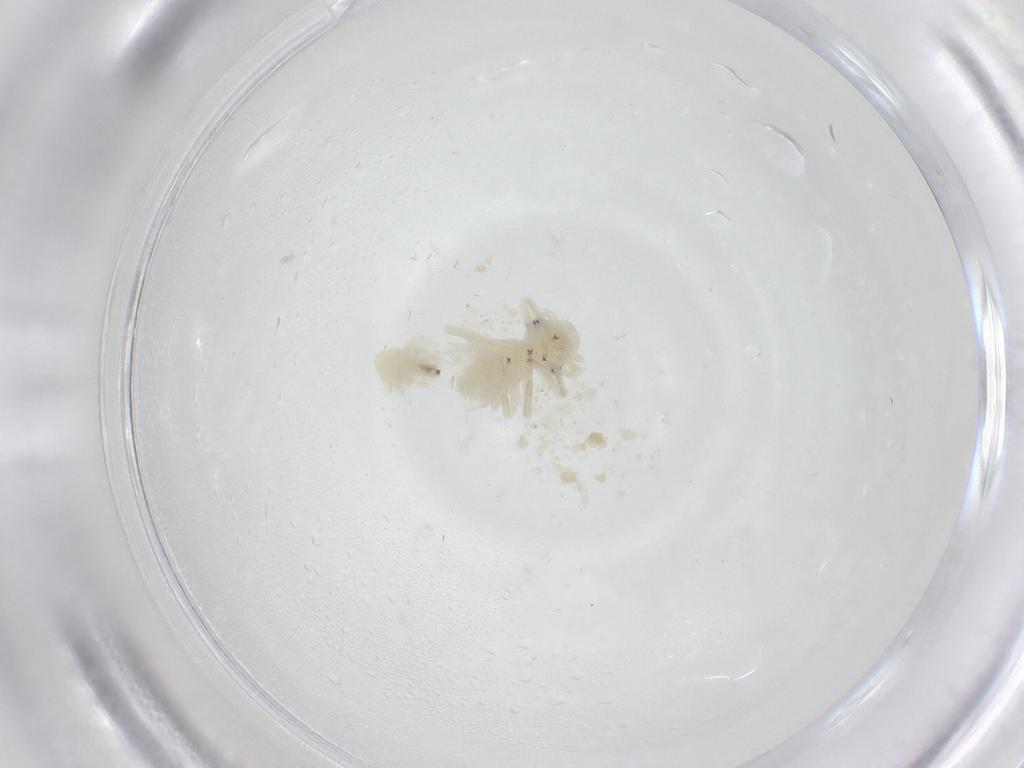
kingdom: Animalia
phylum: Arthropoda
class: Insecta
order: Psocodea
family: Caeciliusidae
